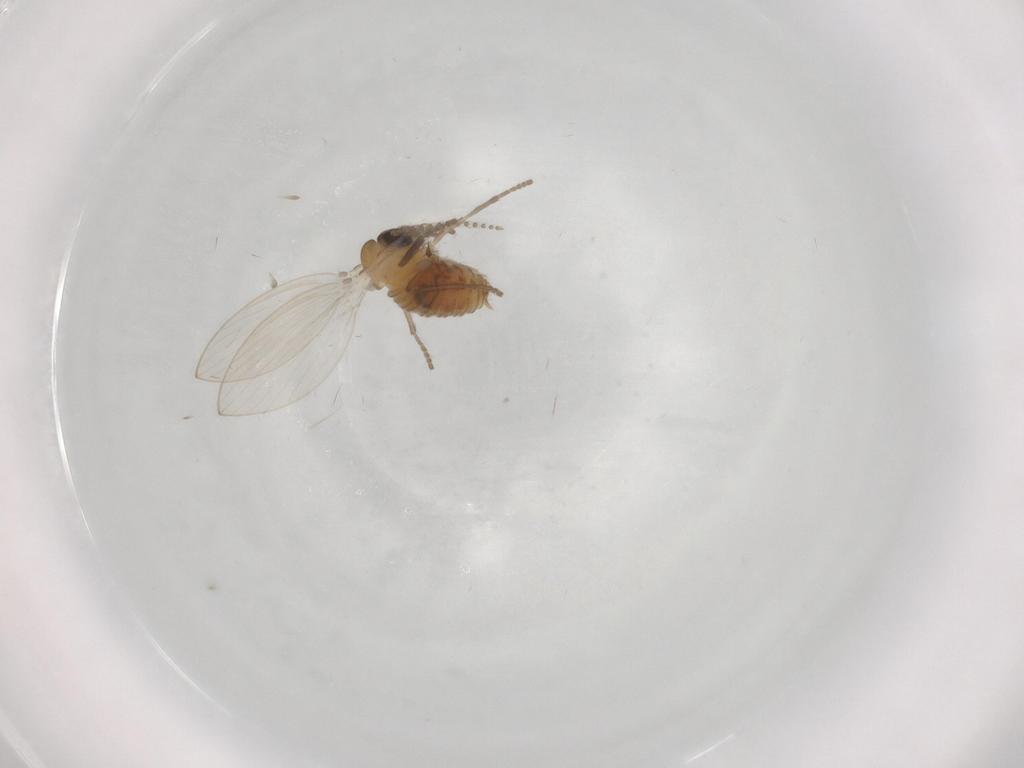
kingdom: Animalia
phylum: Arthropoda
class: Insecta
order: Diptera
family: Psychodidae
